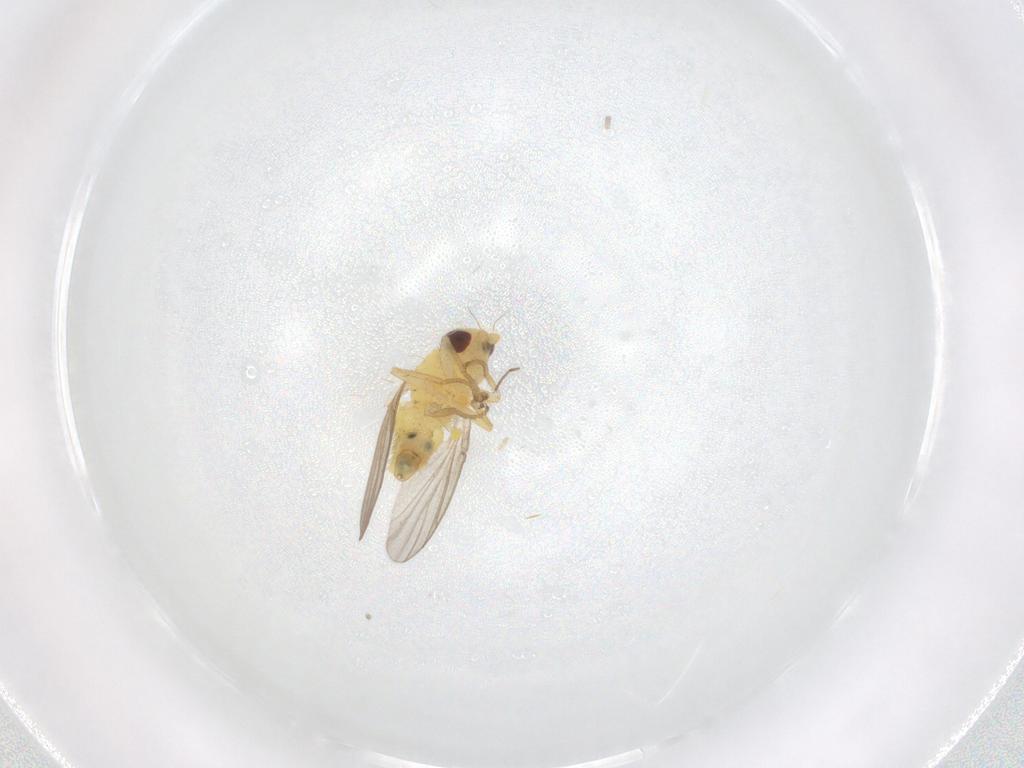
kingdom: Animalia
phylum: Arthropoda
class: Insecta
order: Diptera
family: Agromyzidae
